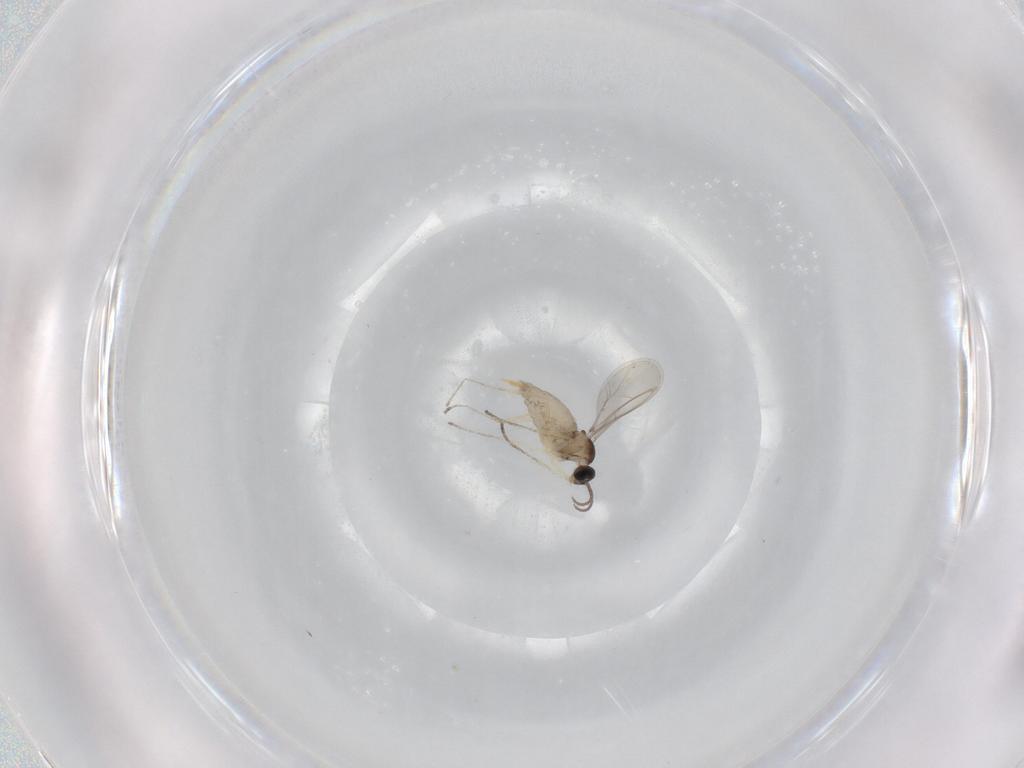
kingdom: Animalia
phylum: Arthropoda
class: Insecta
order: Diptera
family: Cecidomyiidae
